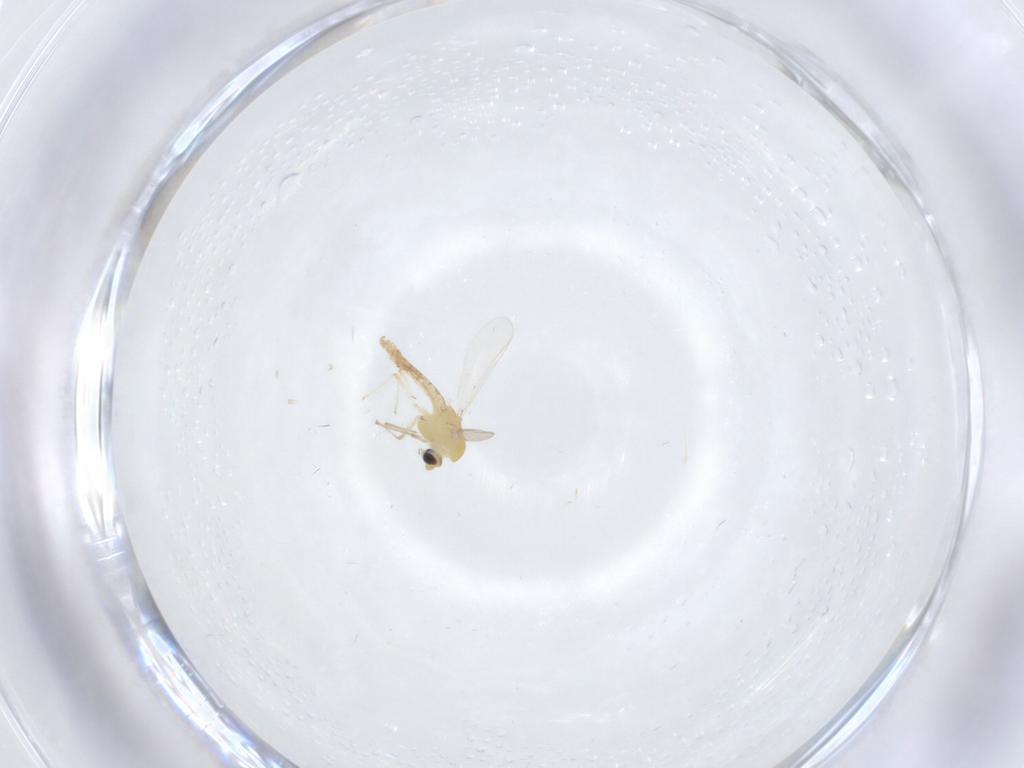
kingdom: Animalia
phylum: Arthropoda
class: Insecta
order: Diptera
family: Chironomidae
